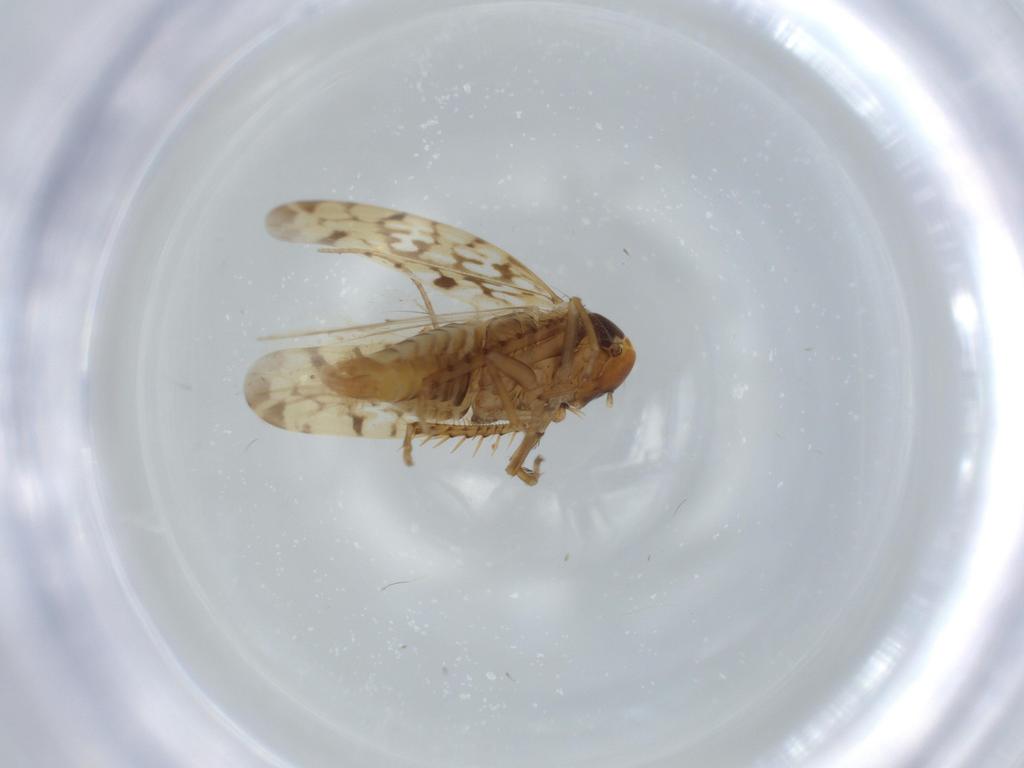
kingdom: Animalia
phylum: Arthropoda
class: Insecta
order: Hemiptera
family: Cicadellidae
